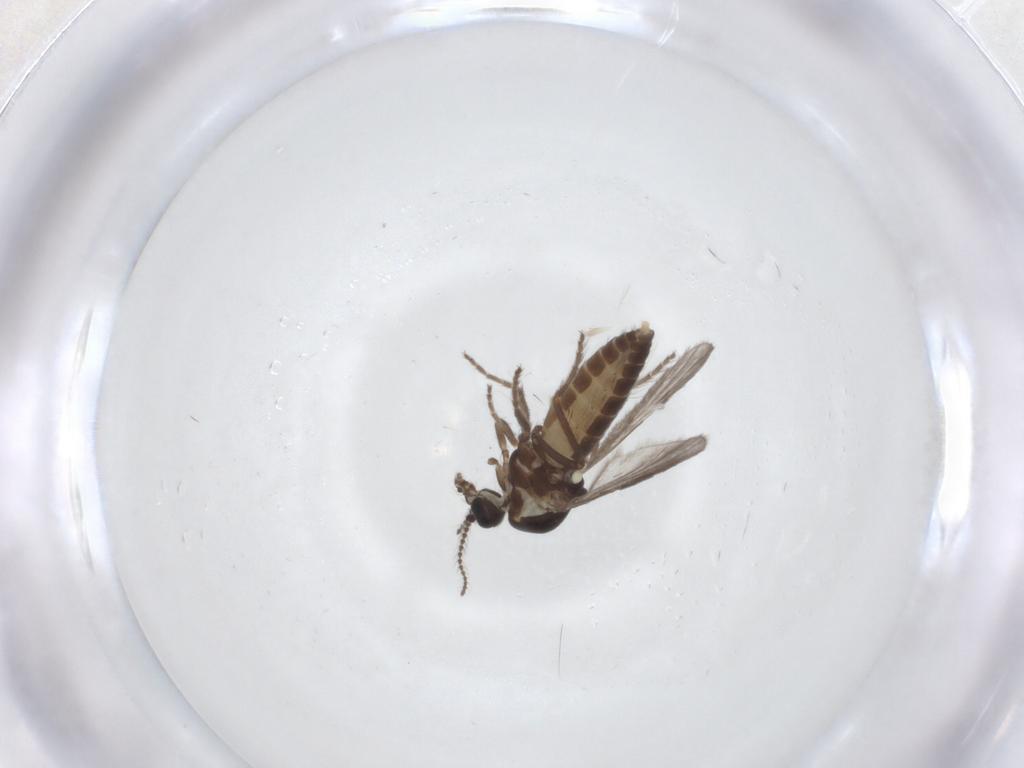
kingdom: Animalia
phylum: Arthropoda
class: Insecta
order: Diptera
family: Ceratopogonidae
